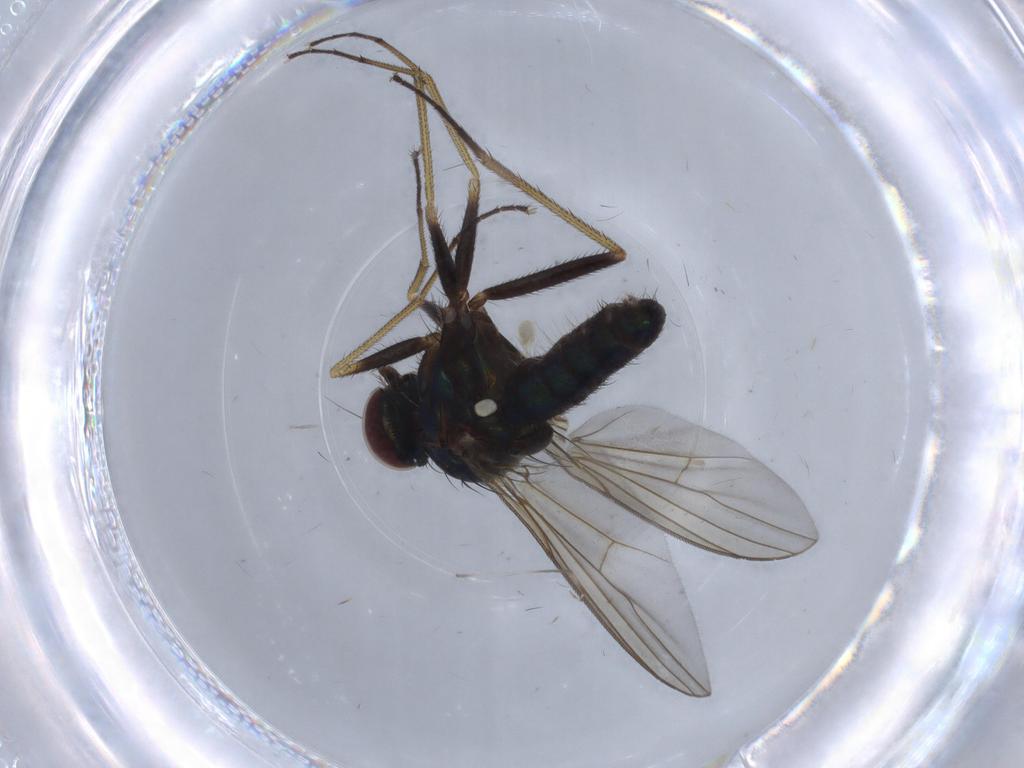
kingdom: Animalia
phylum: Arthropoda
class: Insecta
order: Diptera
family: Dolichopodidae
